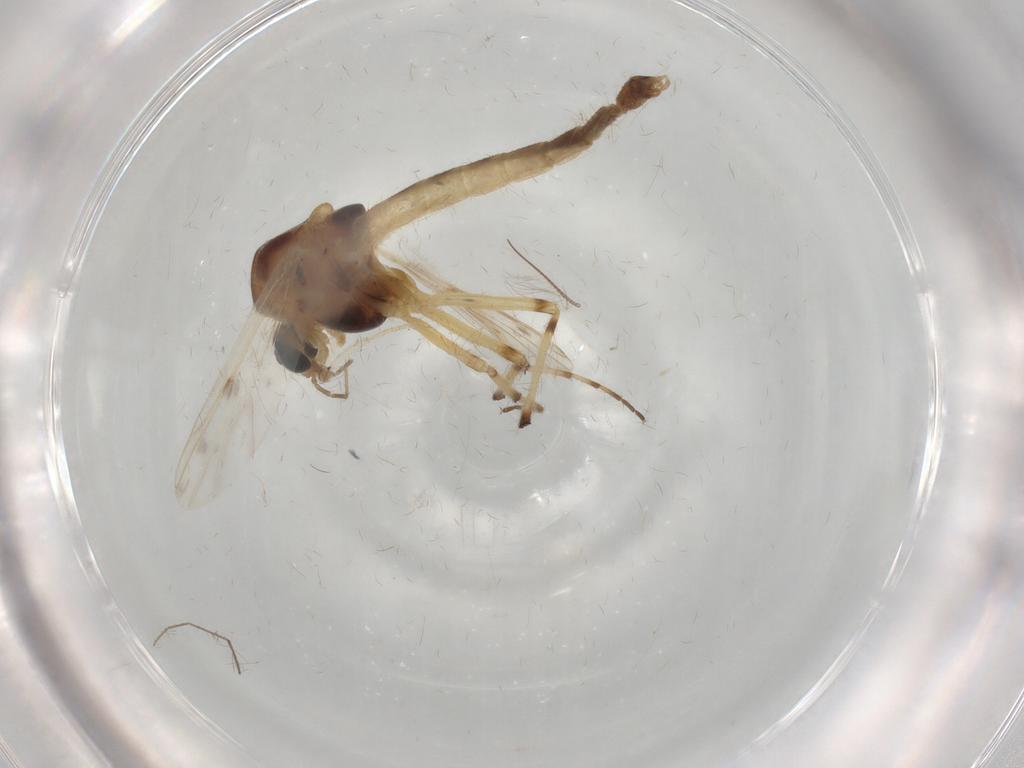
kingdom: Animalia
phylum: Arthropoda
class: Insecta
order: Diptera
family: Chironomidae
